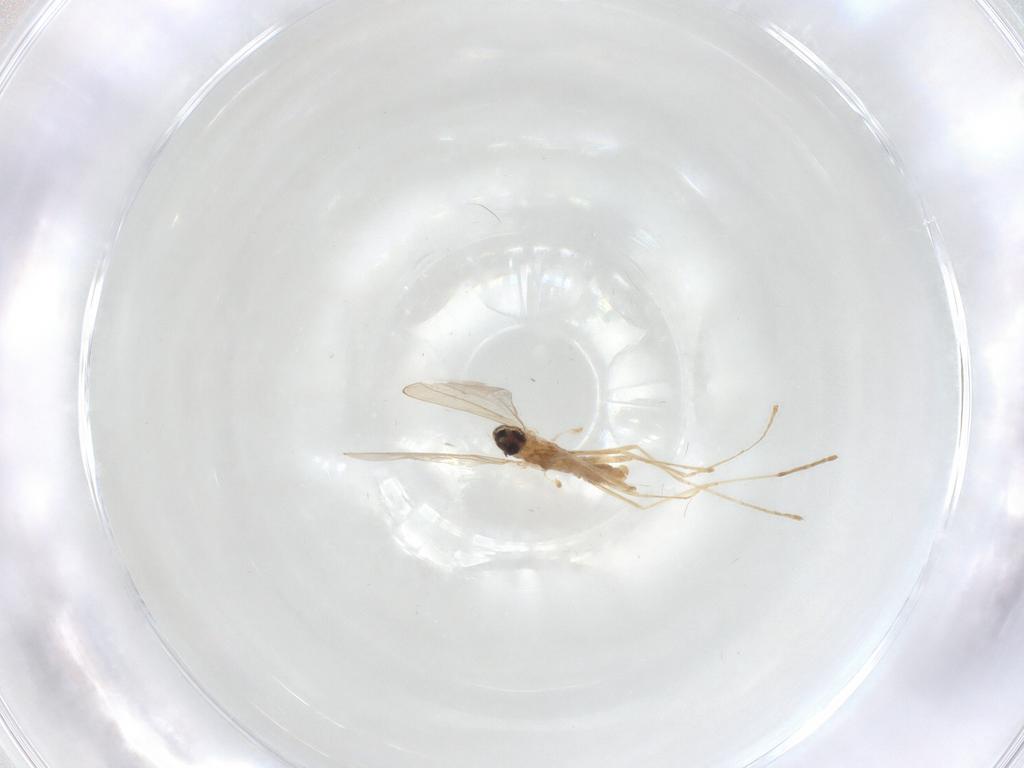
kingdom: Animalia
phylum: Arthropoda
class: Insecta
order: Diptera
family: Cecidomyiidae
